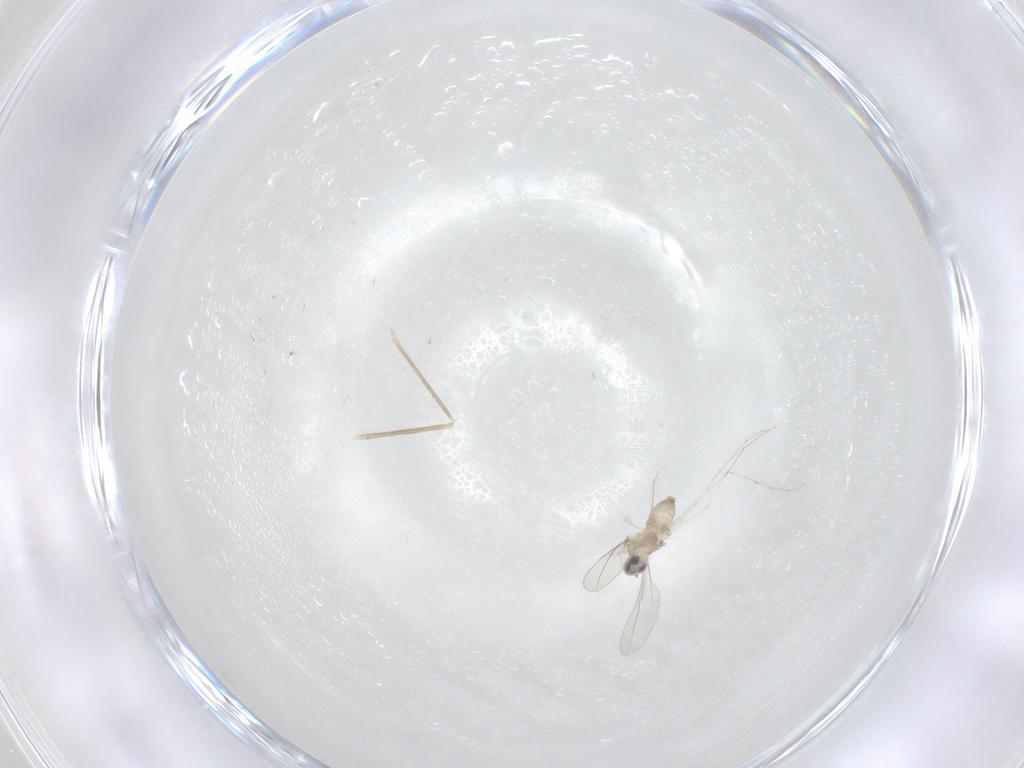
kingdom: Animalia
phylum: Arthropoda
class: Insecta
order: Diptera
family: Cecidomyiidae
